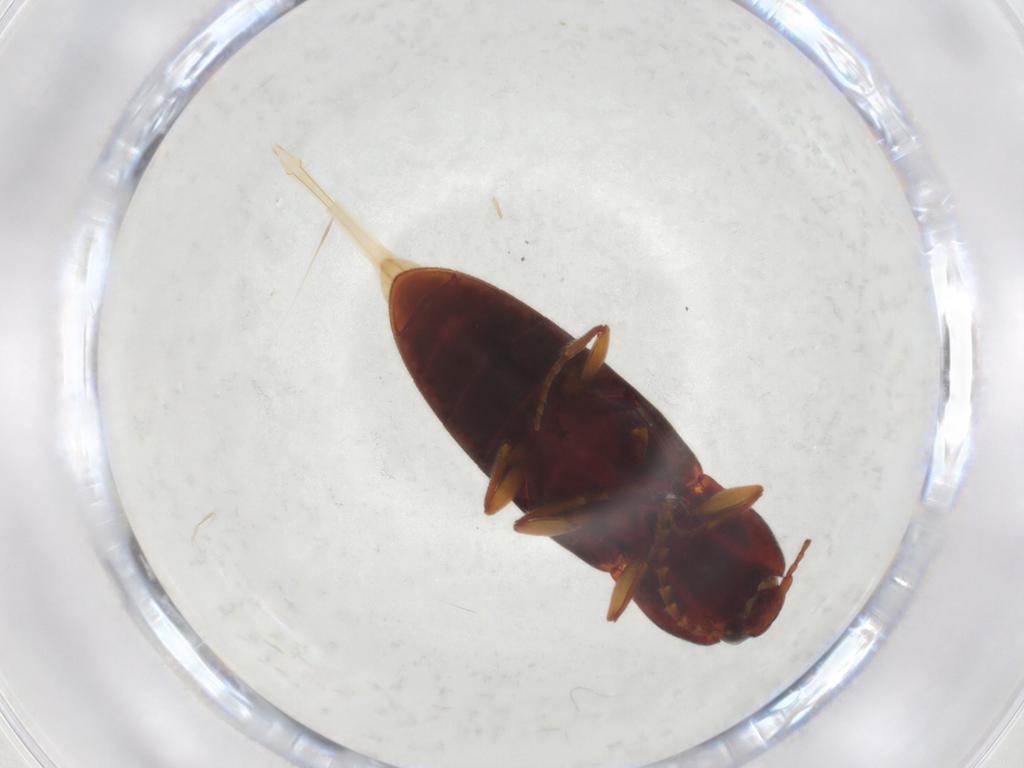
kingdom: Animalia
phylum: Arthropoda
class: Insecta
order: Coleoptera
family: Elateridae
